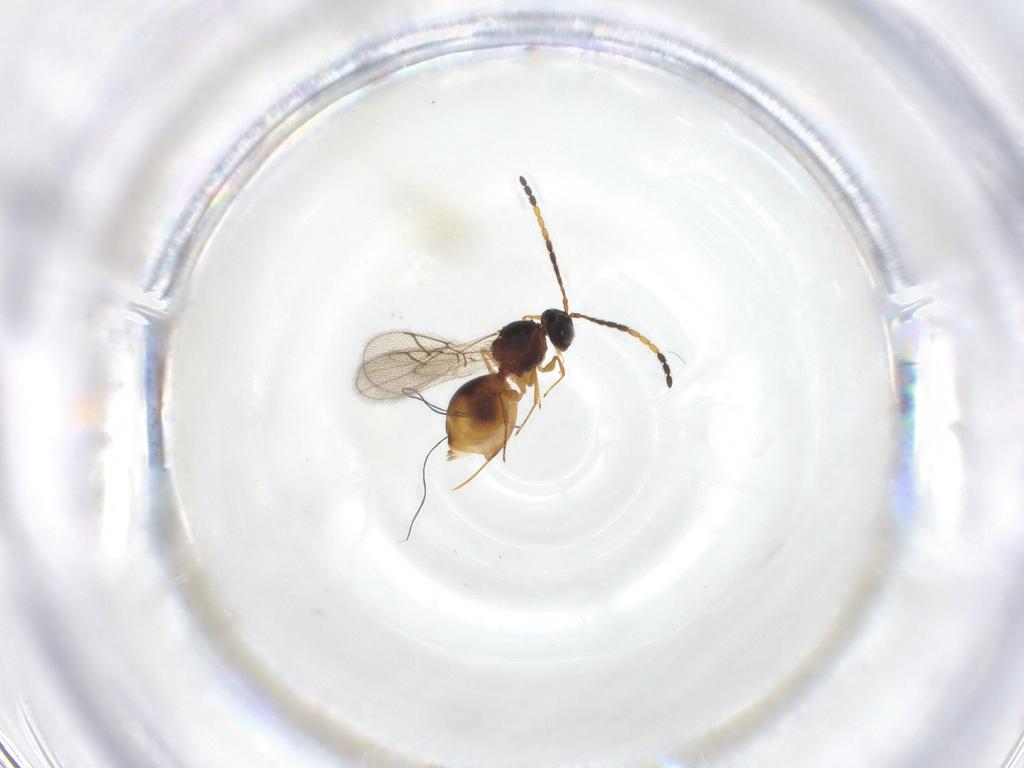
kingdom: Animalia
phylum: Arthropoda
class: Insecta
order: Hymenoptera
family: Figitidae
